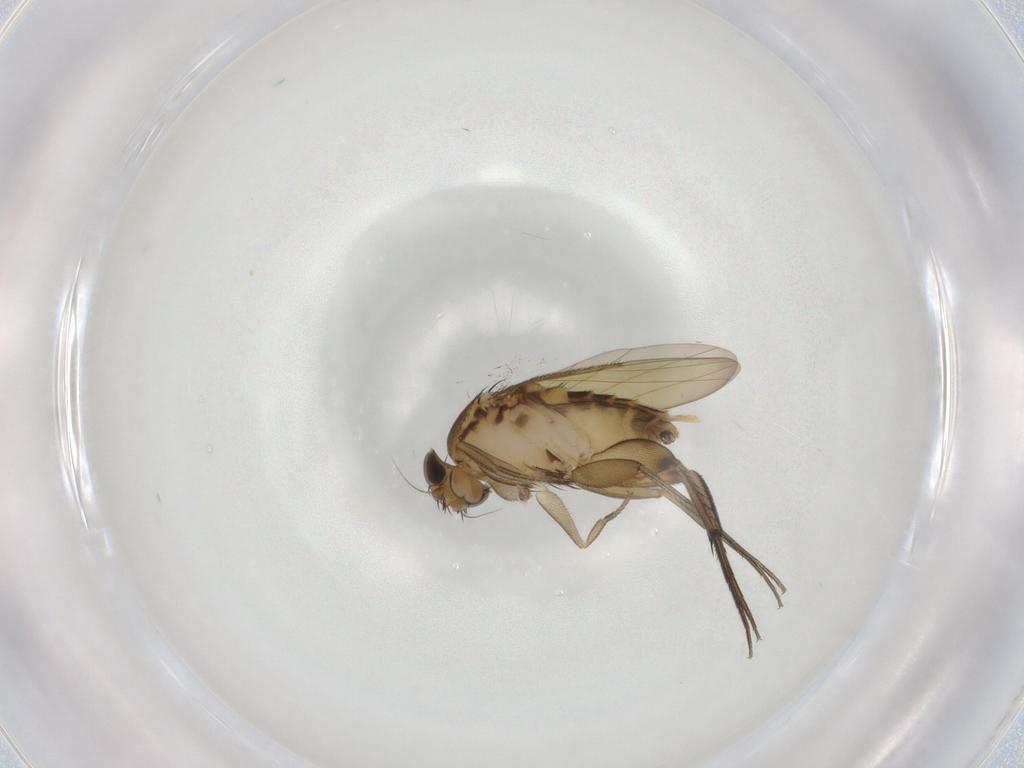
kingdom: Animalia
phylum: Arthropoda
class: Insecta
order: Diptera
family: Phoridae
